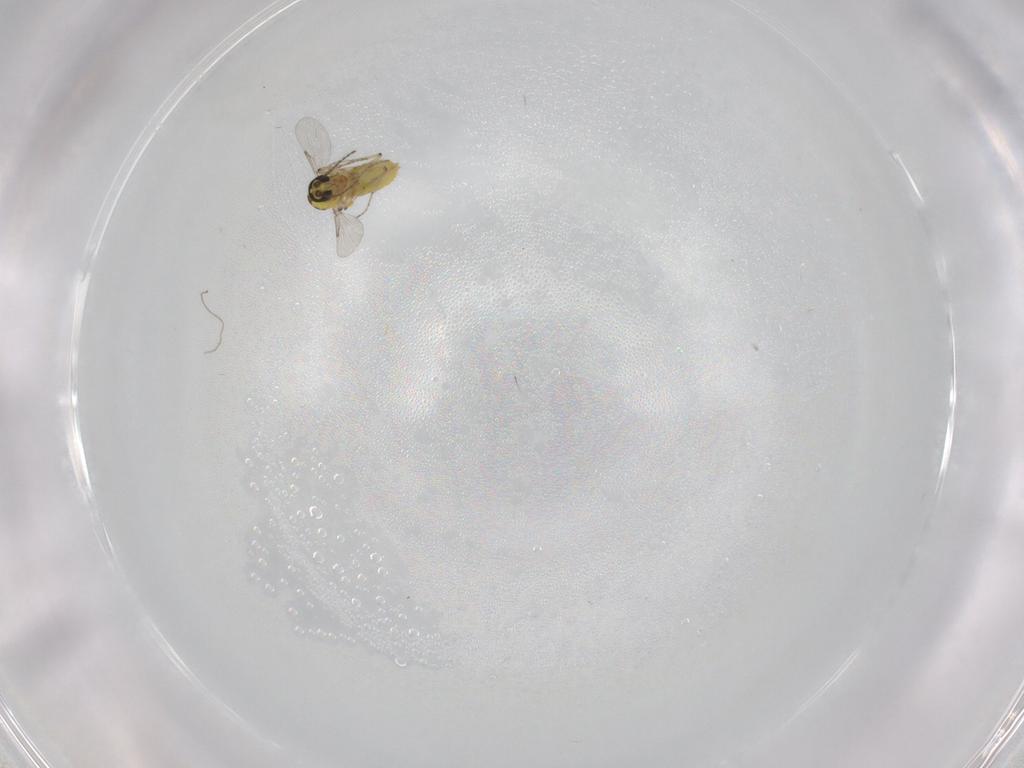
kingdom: Animalia
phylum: Arthropoda
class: Insecta
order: Diptera
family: Cecidomyiidae
